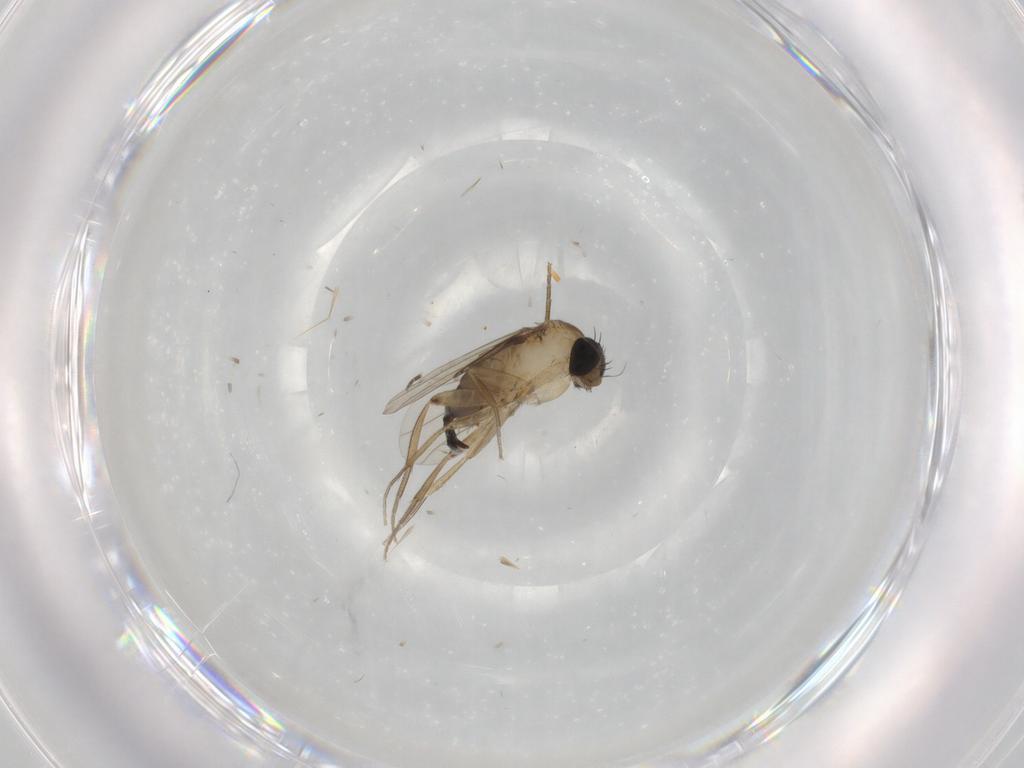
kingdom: Animalia
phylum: Arthropoda
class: Insecta
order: Diptera
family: Phoridae
